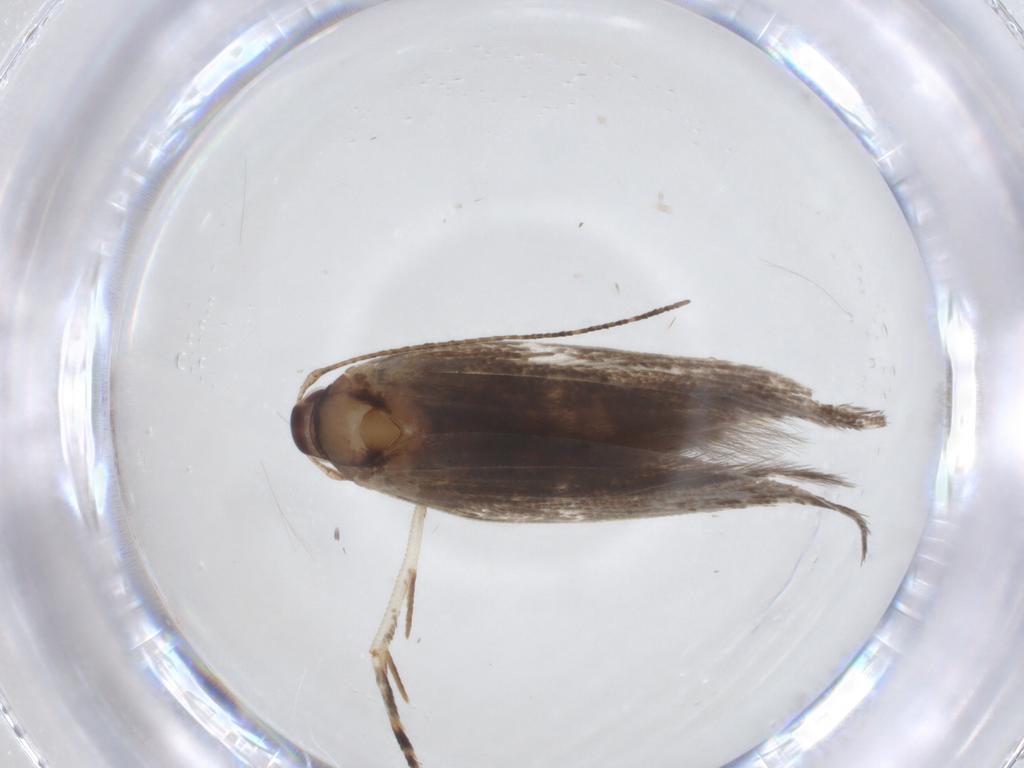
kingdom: Animalia
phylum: Arthropoda
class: Insecta
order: Lepidoptera
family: Cosmopterigidae
